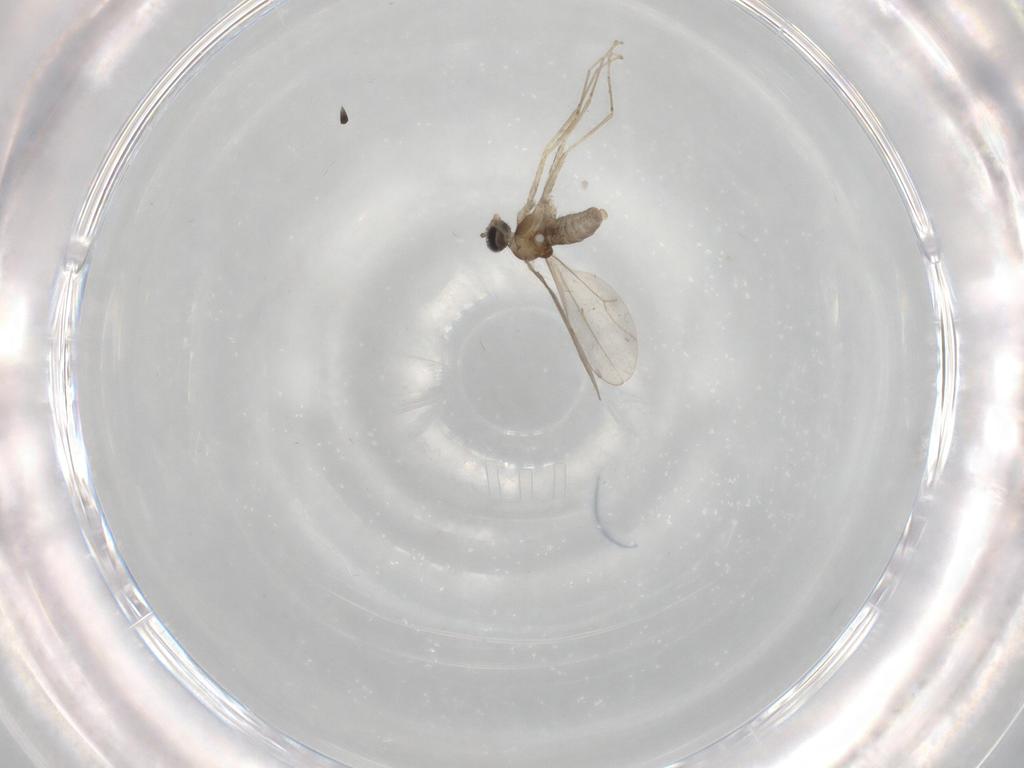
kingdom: Animalia
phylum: Arthropoda
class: Insecta
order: Diptera
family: Cecidomyiidae
